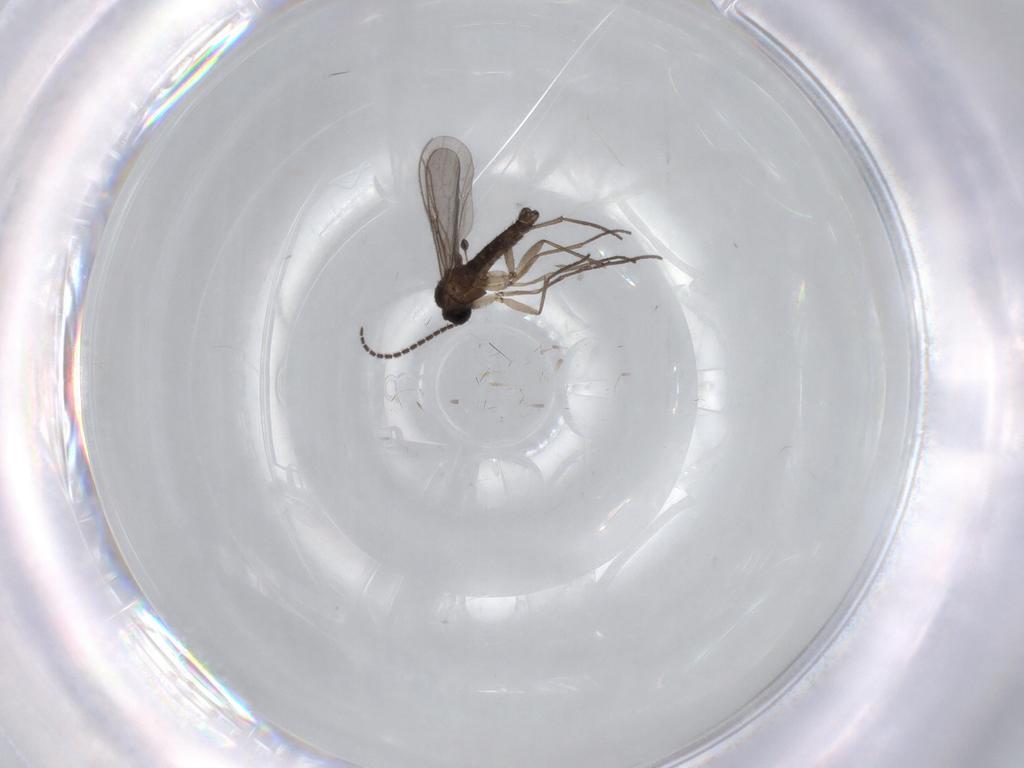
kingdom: Animalia
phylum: Arthropoda
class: Insecta
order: Diptera
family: Sciaridae
